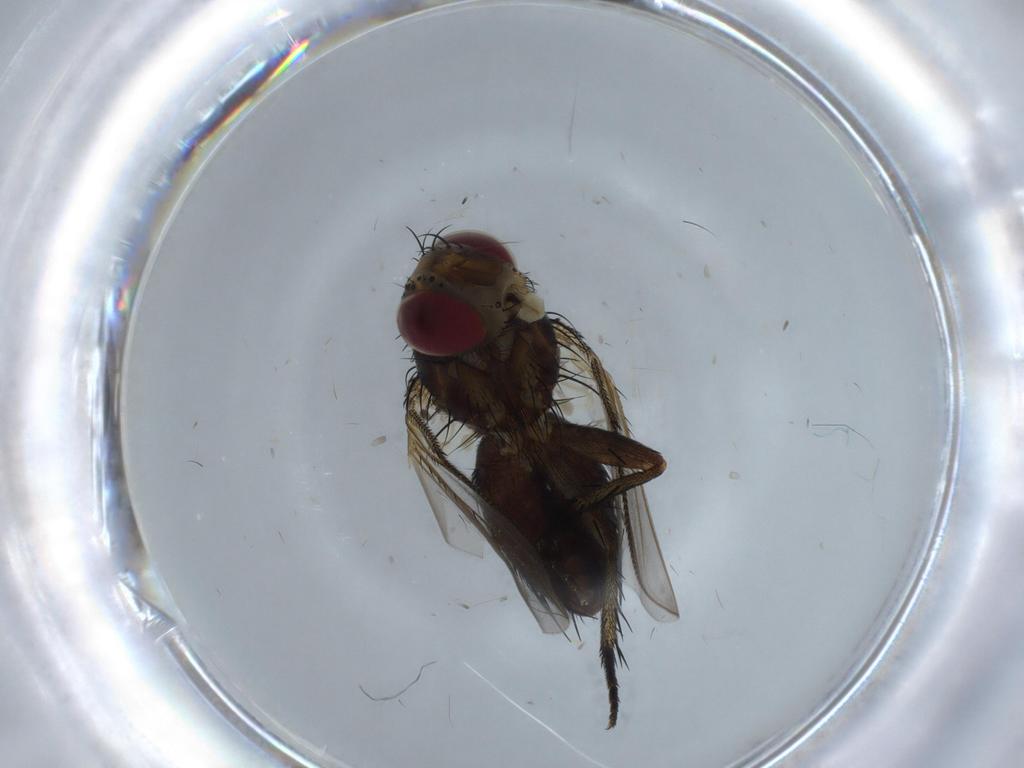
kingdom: Animalia
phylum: Arthropoda
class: Insecta
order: Diptera
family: Tachinidae
